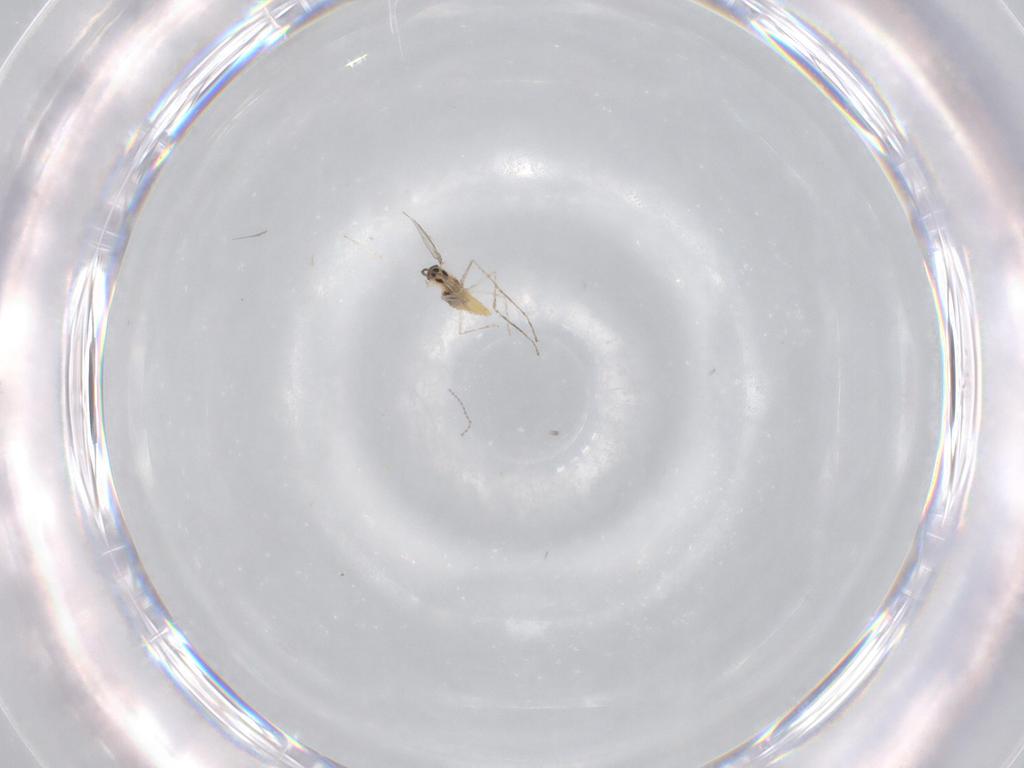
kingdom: Animalia
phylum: Arthropoda
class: Insecta
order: Diptera
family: Cecidomyiidae
